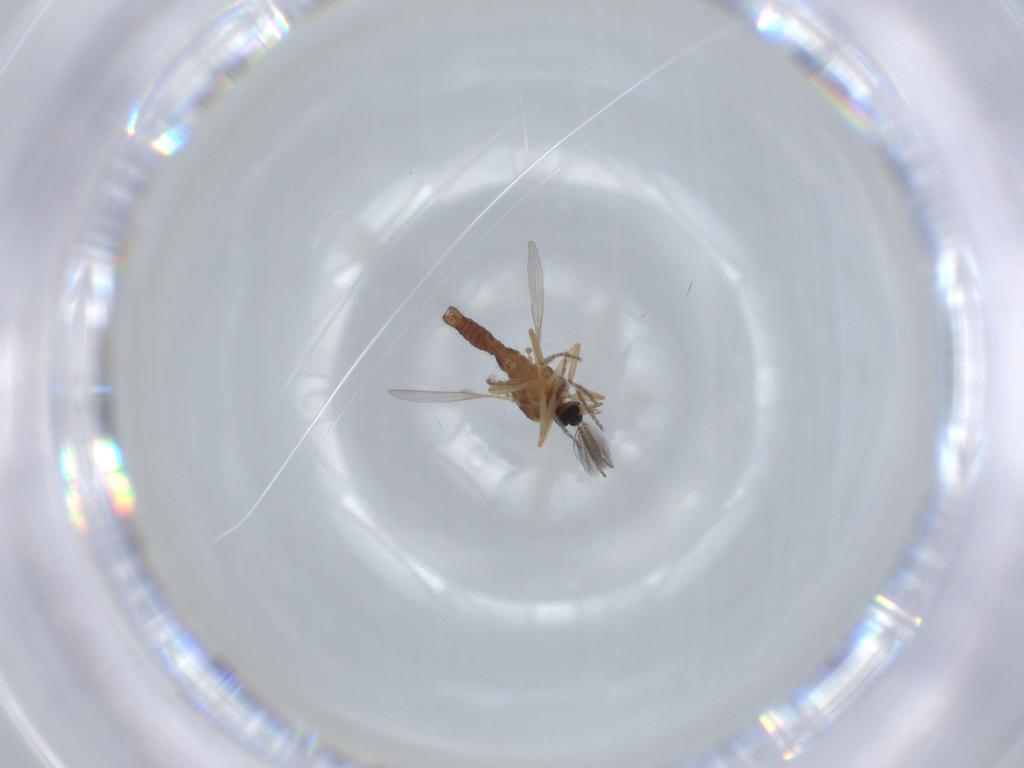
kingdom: Animalia
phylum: Arthropoda
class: Insecta
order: Diptera
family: Ceratopogonidae
